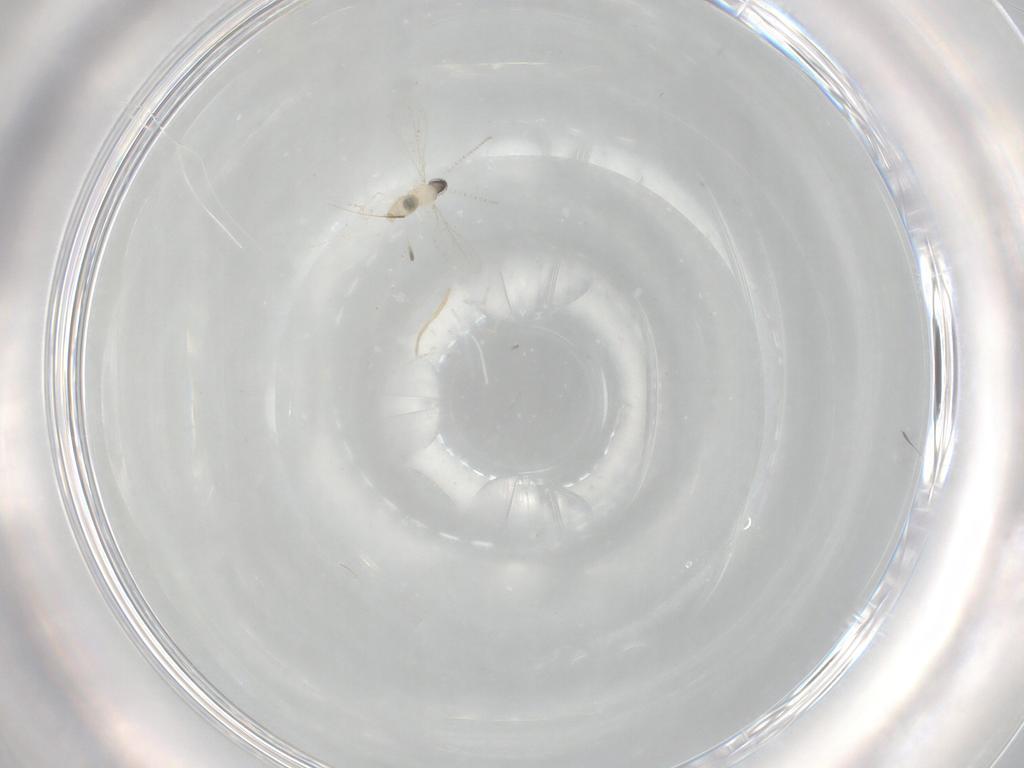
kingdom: Animalia
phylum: Arthropoda
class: Insecta
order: Diptera
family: Cecidomyiidae
